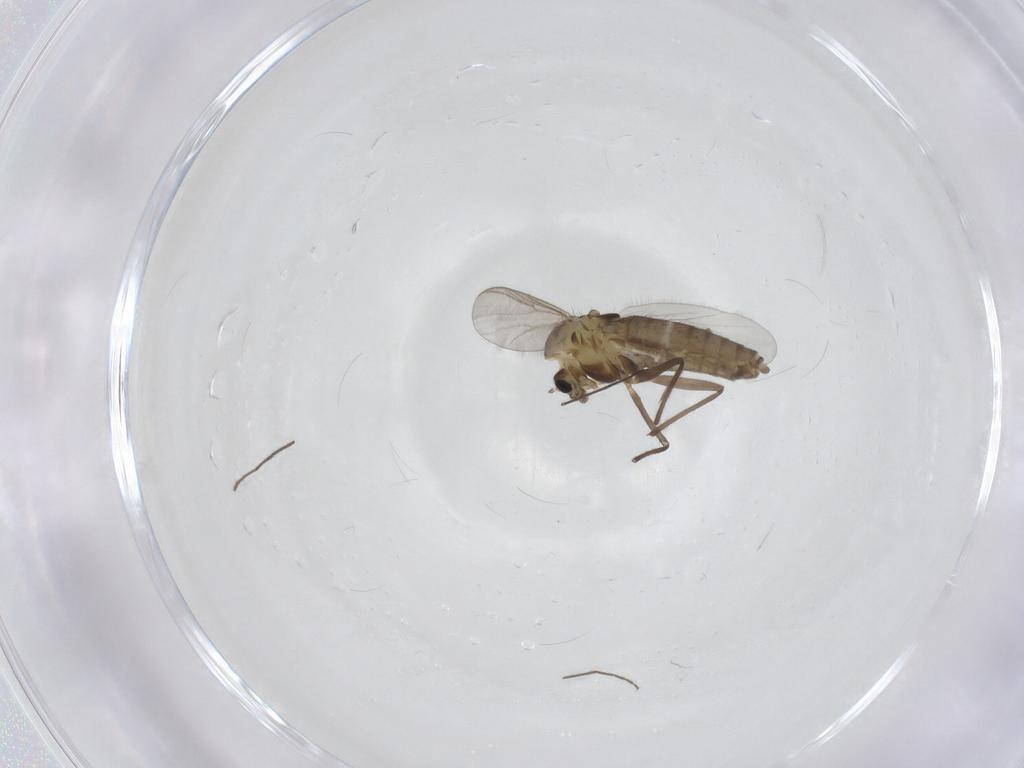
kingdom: Animalia
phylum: Arthropoda
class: Insecta
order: Diptera
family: Chironomidae
